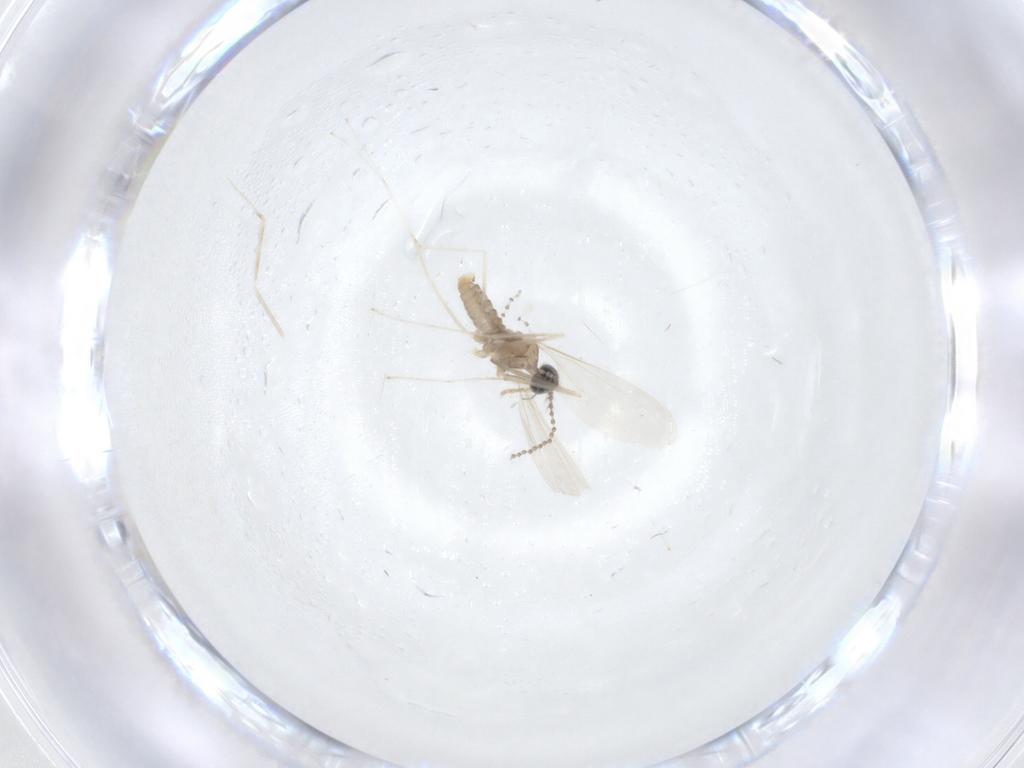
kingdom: Animalia
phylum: Arthropoda
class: Insecta
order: Diptera
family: Cecidomyiidae
